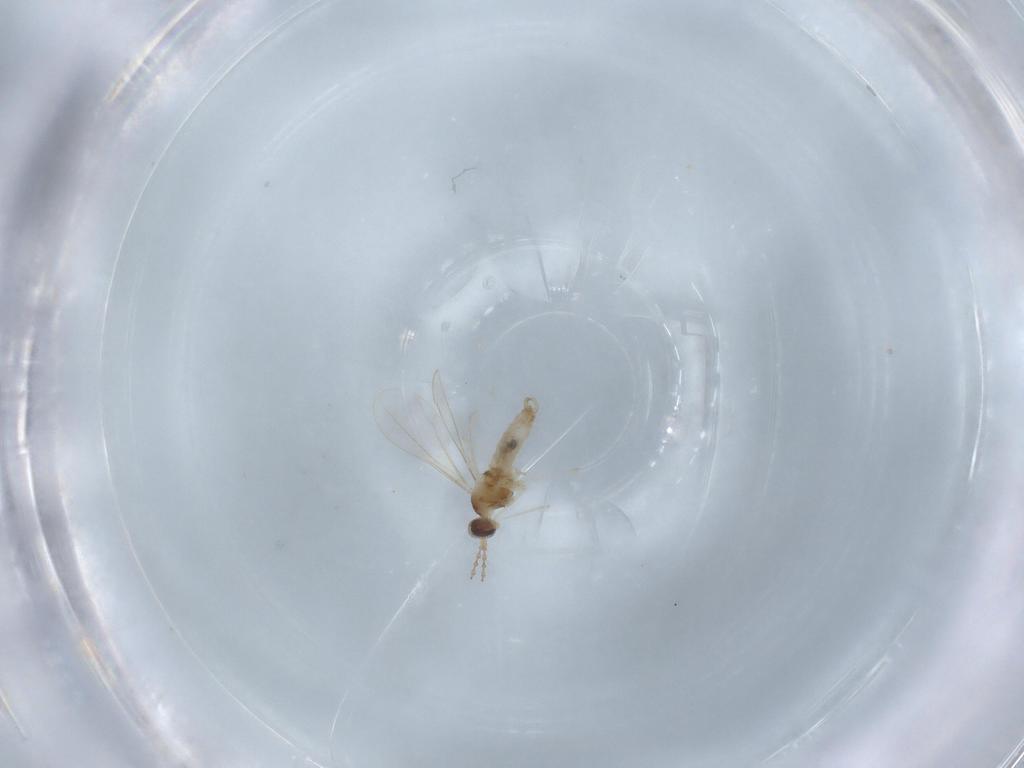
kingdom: Animalia
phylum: Arthropoda
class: Insecta
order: Diptera
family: Cecidomyiidae
